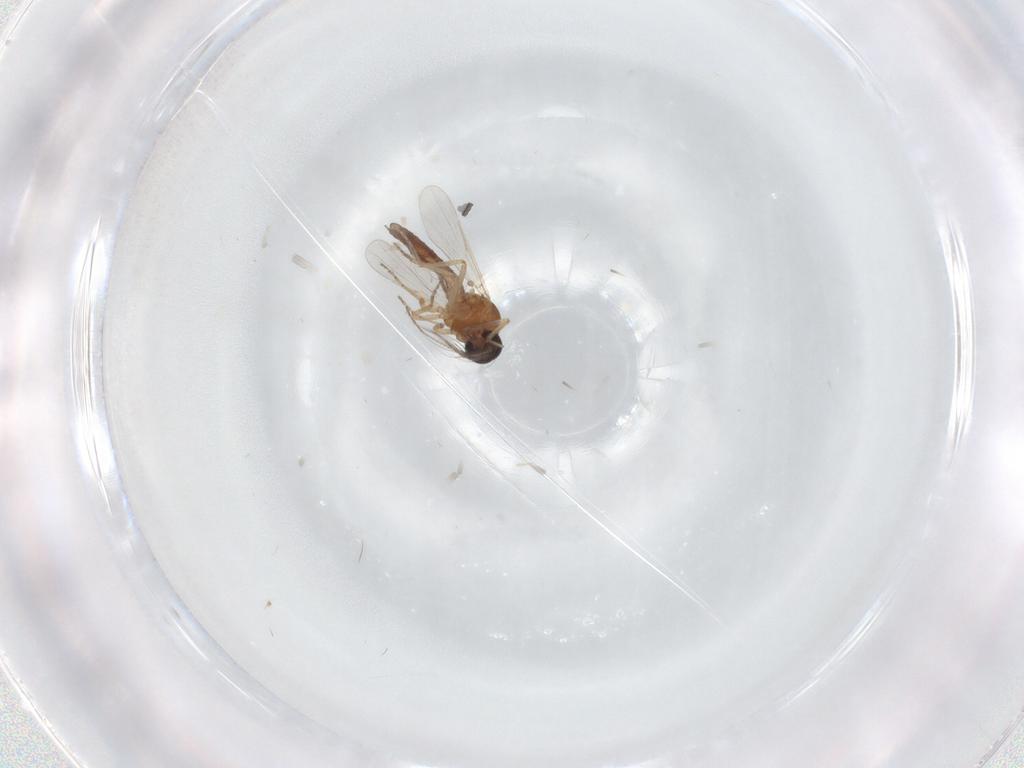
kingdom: Animalia
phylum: Arthropoda
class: Insecta
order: Diptera
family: Ceratopogonidae
